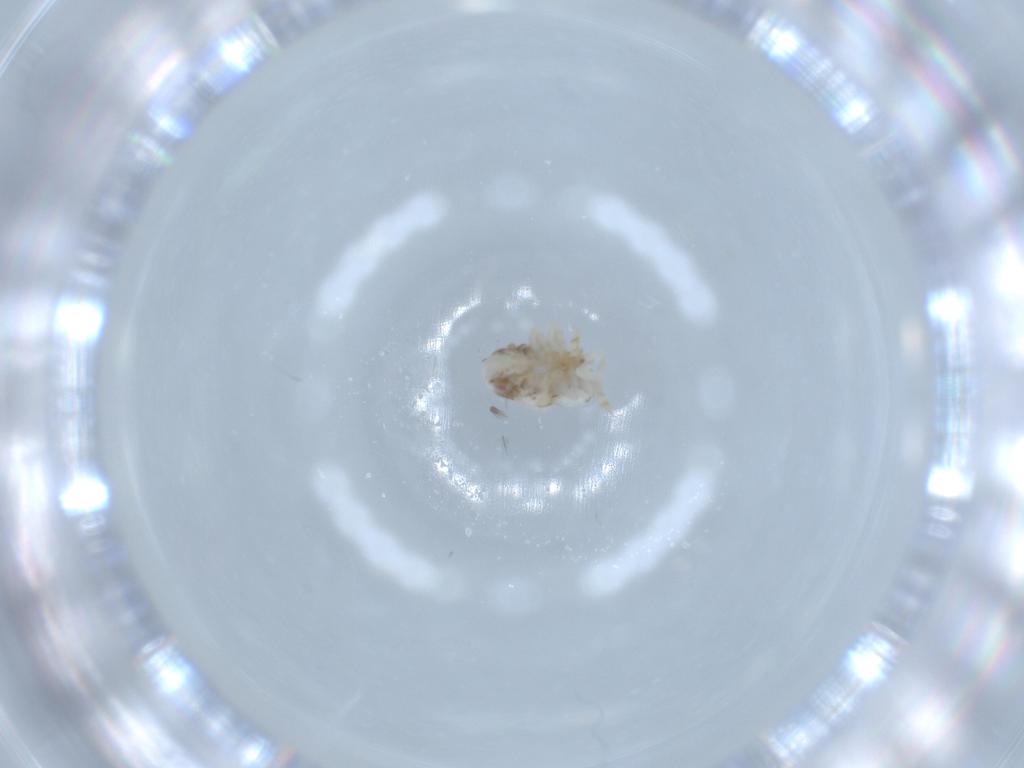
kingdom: Animalia
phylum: Arthropoda
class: Insecta
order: Hemiptera
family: Acanaloniidae
